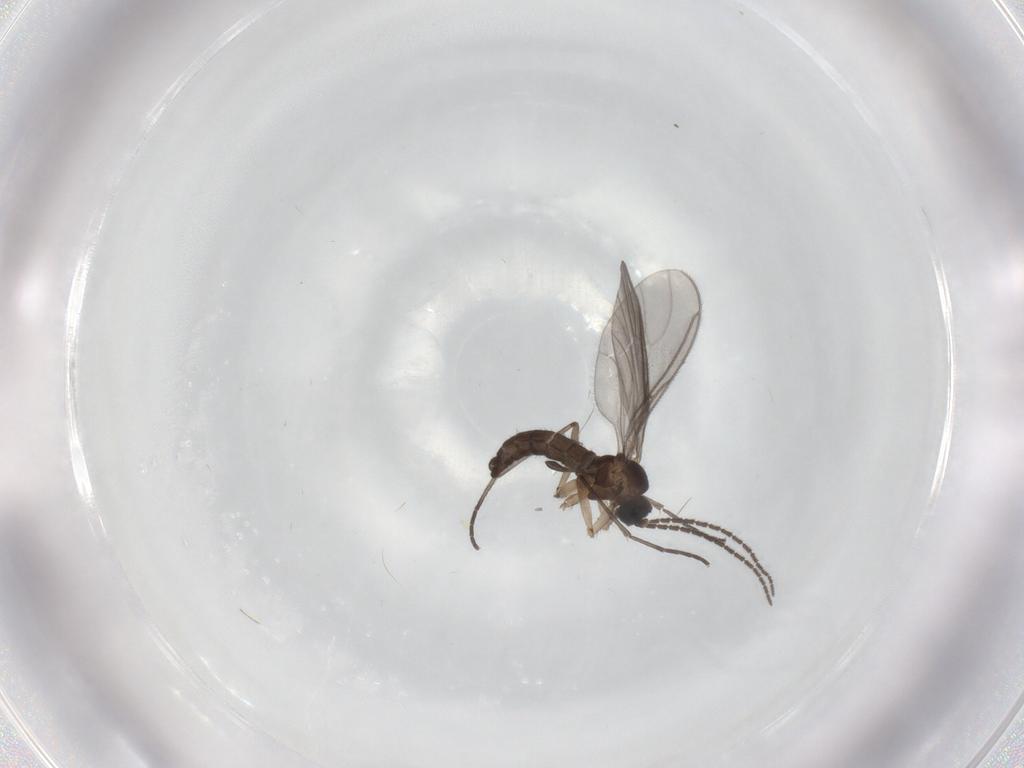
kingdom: Animalia
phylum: Arthropoda
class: Insecta
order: Diptera
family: Sciaridae
